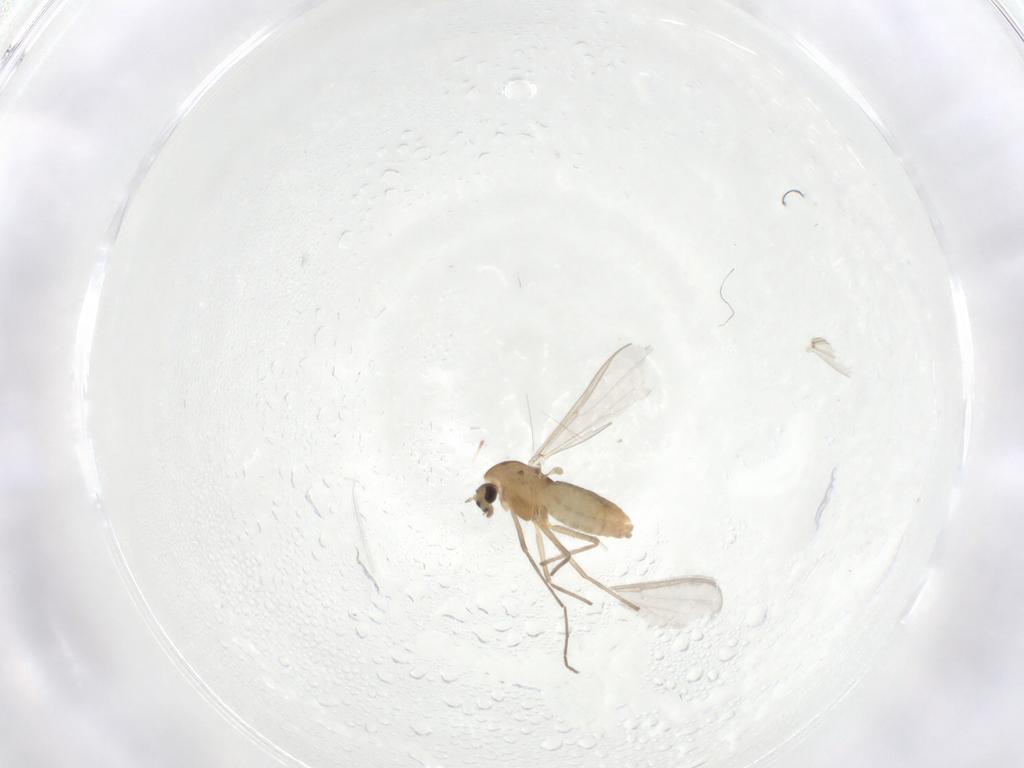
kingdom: Animalia
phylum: Arthropoda
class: Insecta
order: Diptera
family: Chironomidae
